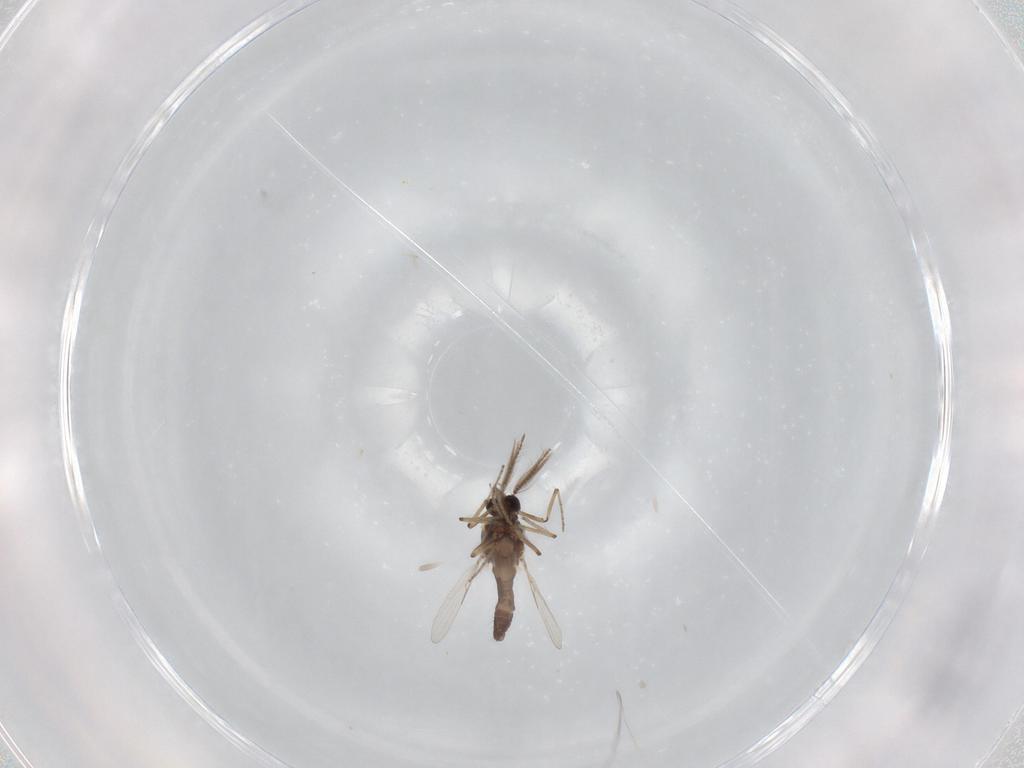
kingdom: Animalia
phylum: Arthropoda
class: Insecta
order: Diptera
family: Ceratopogonidae
